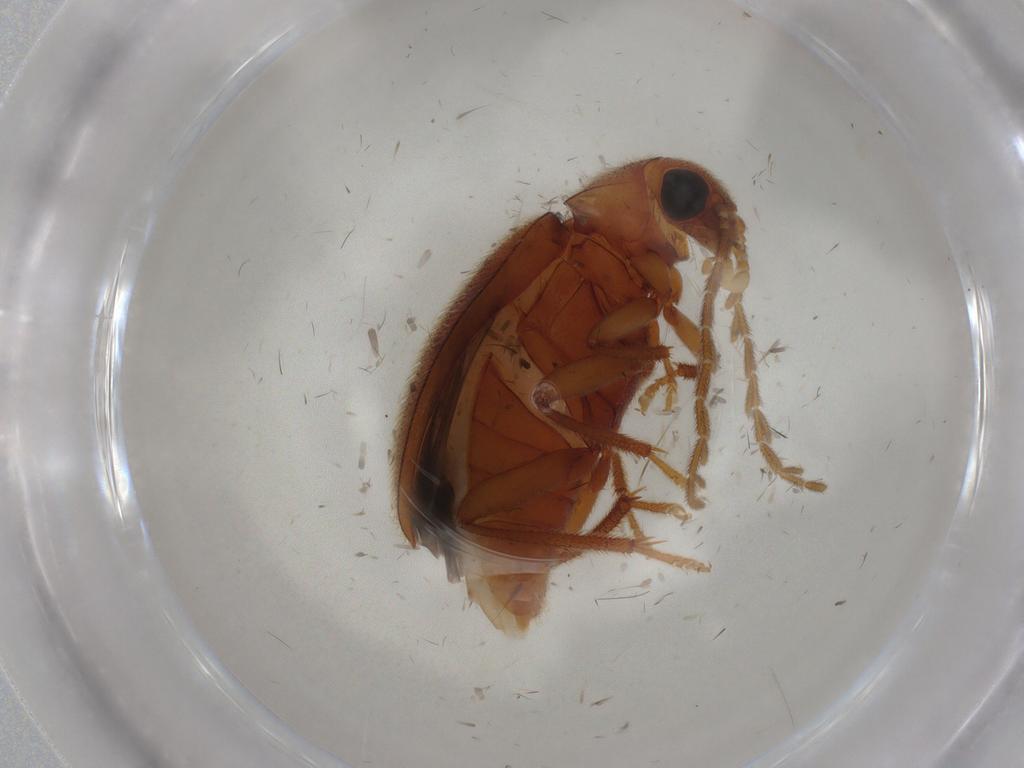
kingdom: Animalia
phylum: Arthropoda
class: Insecta
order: Coleoptera
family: Ptilodactylidae
